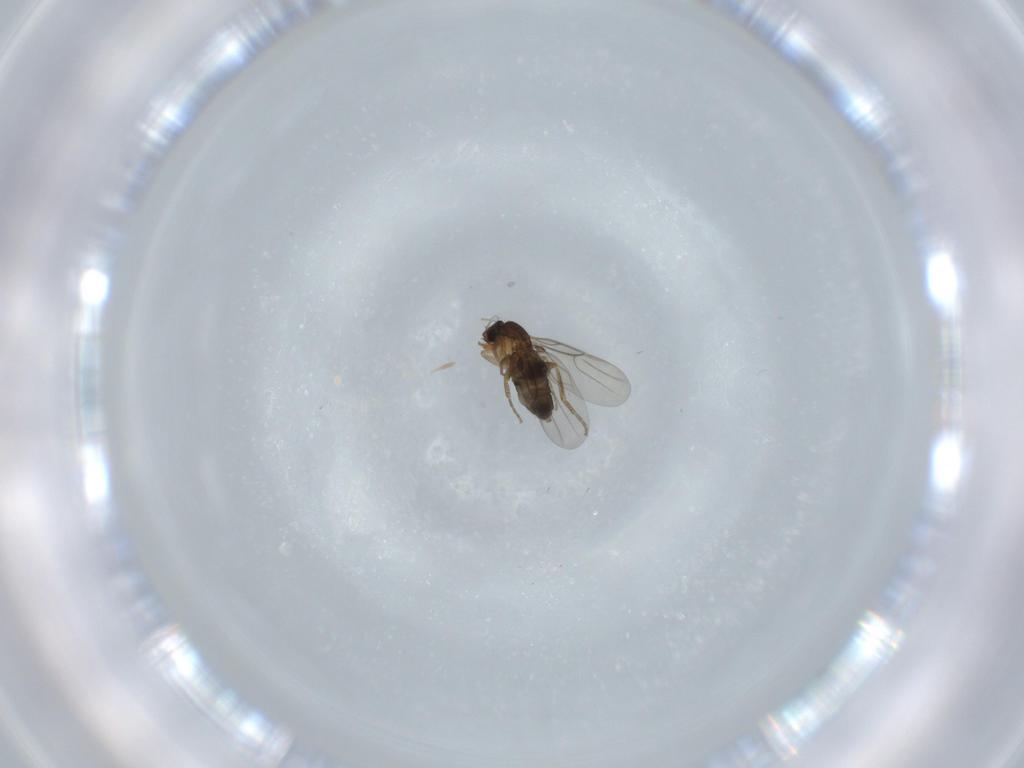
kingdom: Animalia
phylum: Arthropoda
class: Insecta
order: Diptera
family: Phoridae
